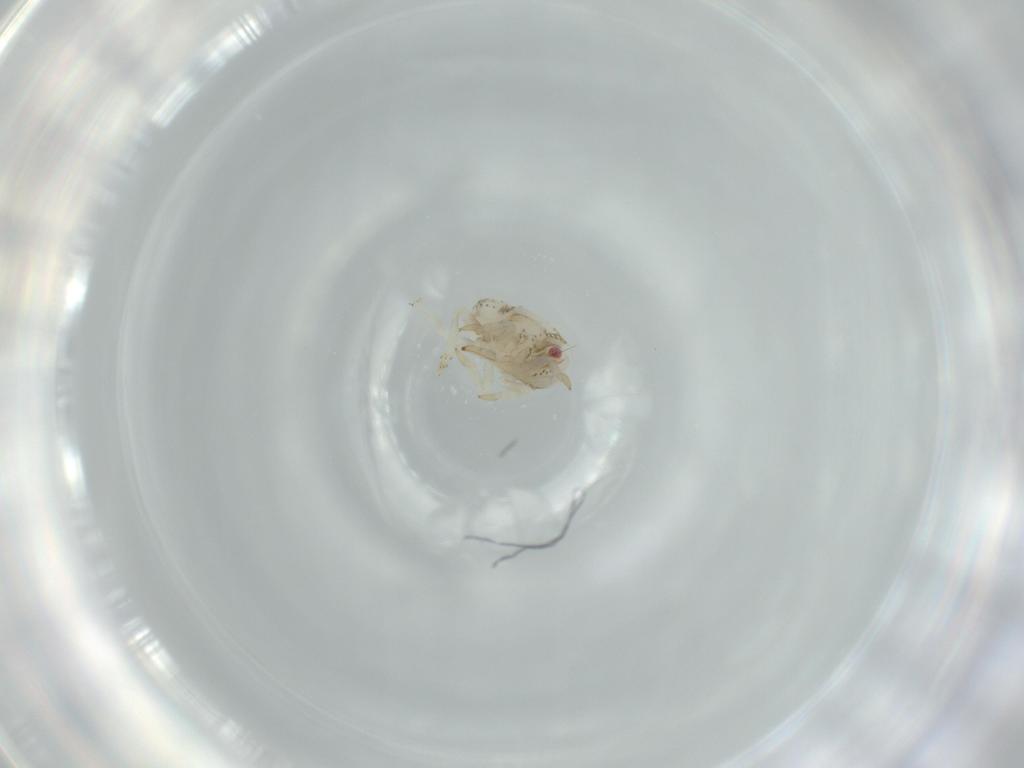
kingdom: Animalia
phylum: Arthropoda
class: Insecta
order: Hemiptera
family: Acanaloniidae
